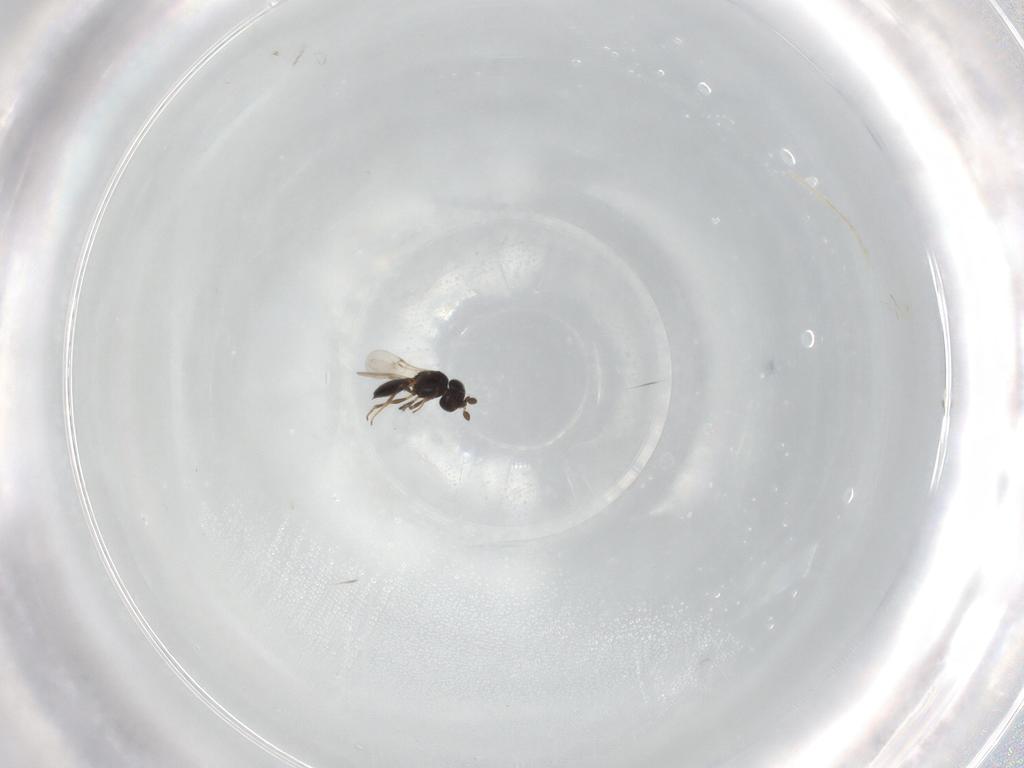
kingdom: Animalia
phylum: Arthropoda
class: Insecta
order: Hymenoptera
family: Scelionidae
